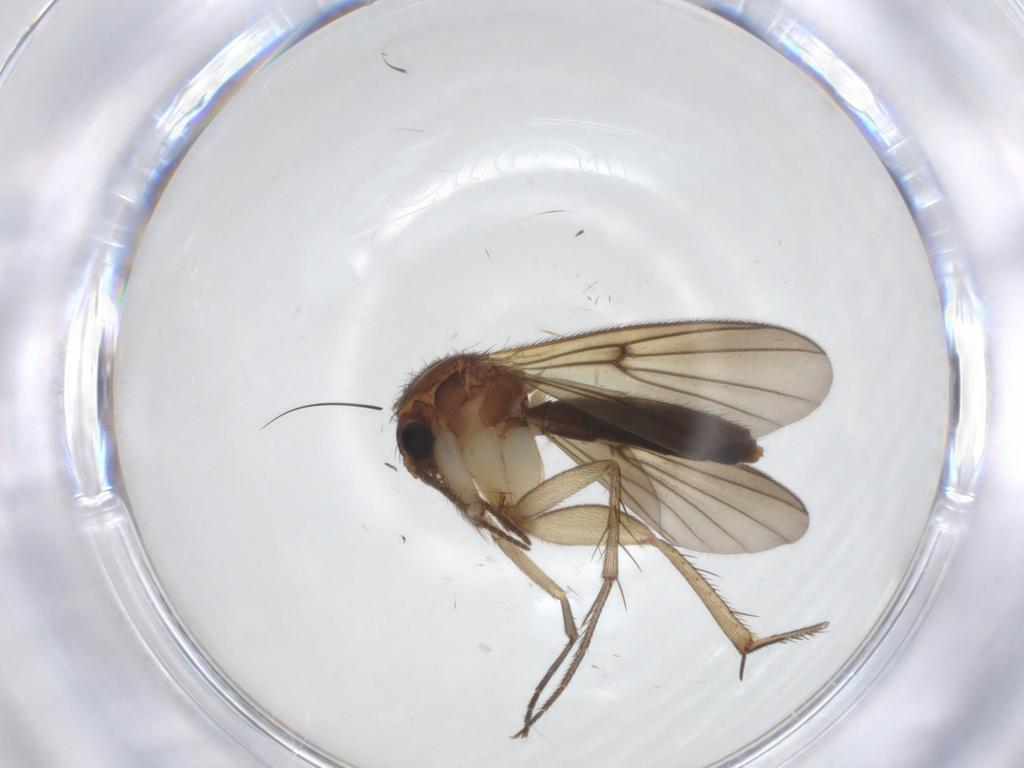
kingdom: Animalia
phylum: Arthropoda
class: Insecta
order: Diptera
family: Mycetophilidae
